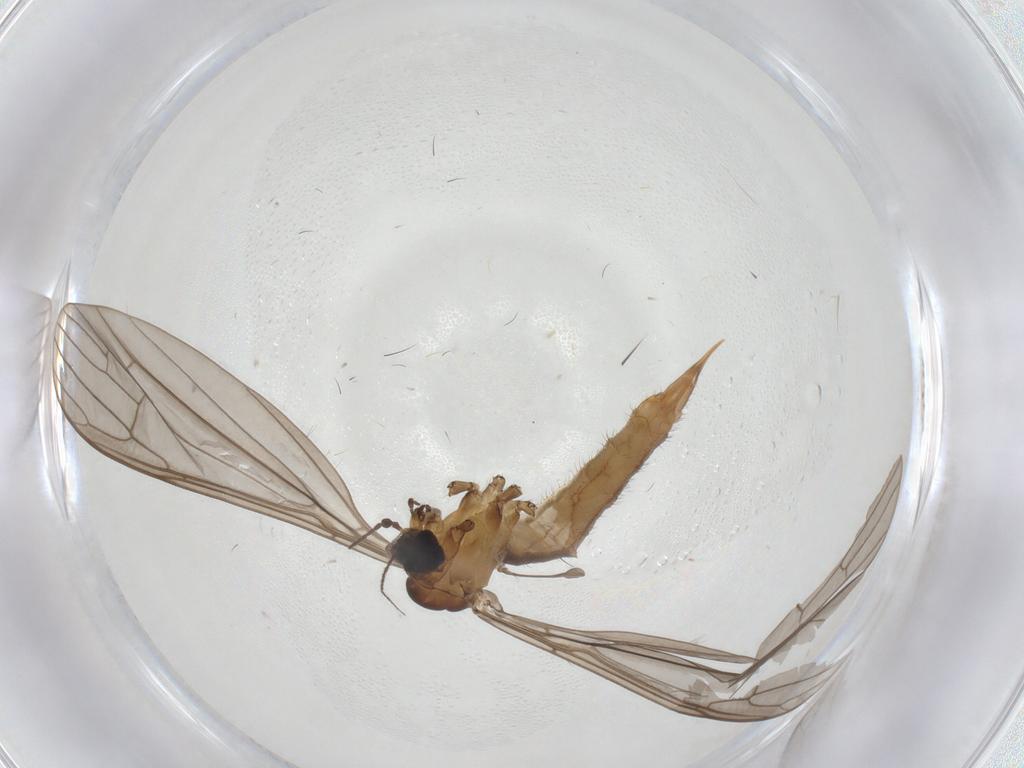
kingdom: Animalia
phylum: Arthropoda
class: Insecta
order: Diptera
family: Limoniidae
